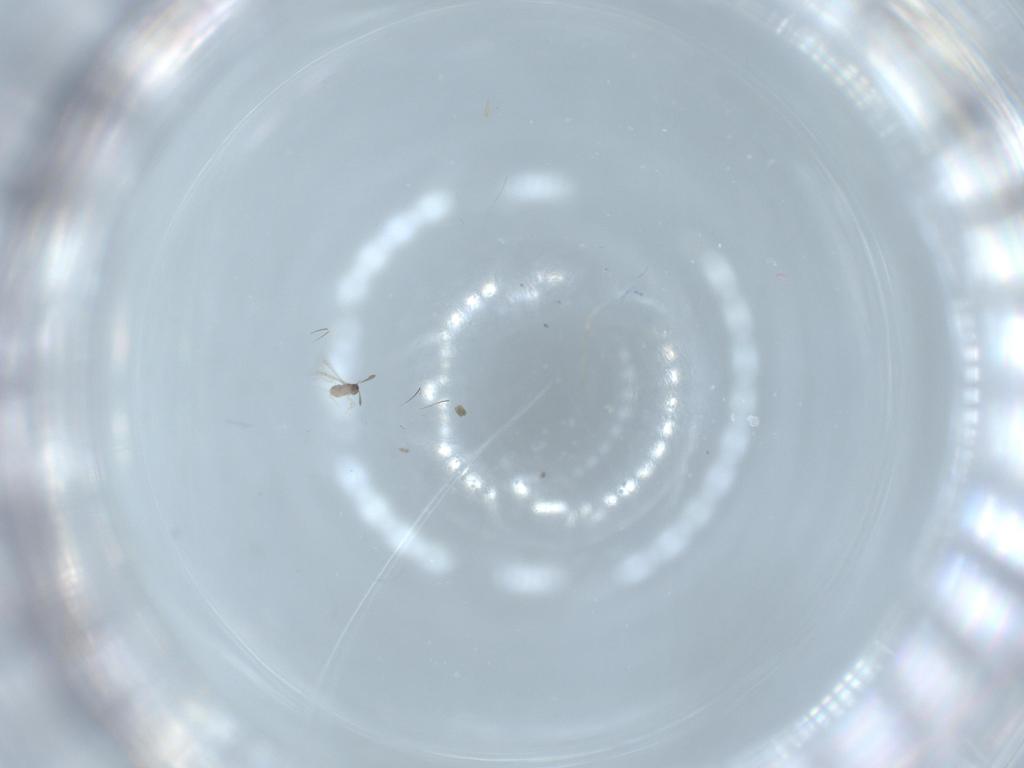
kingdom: Animalia
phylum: Arthropoda
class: Insecta
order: Hymenoptera
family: Mymaridae
